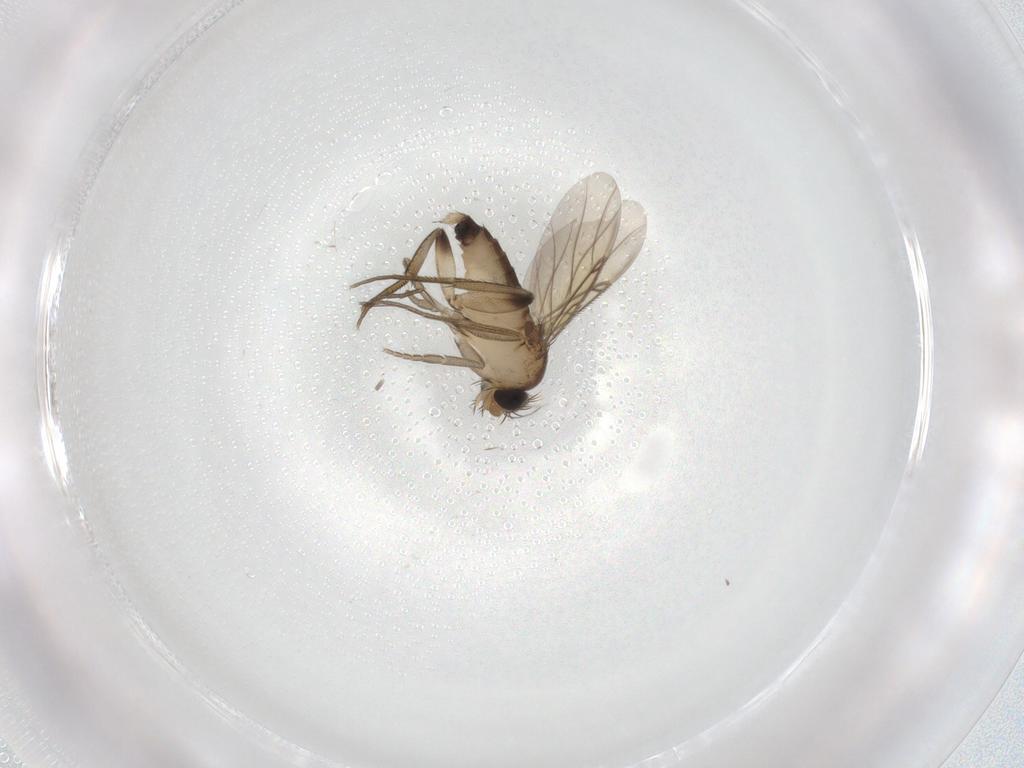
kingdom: Animalia
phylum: Arthropoda
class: Insecta
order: Diptera
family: Phoridae
